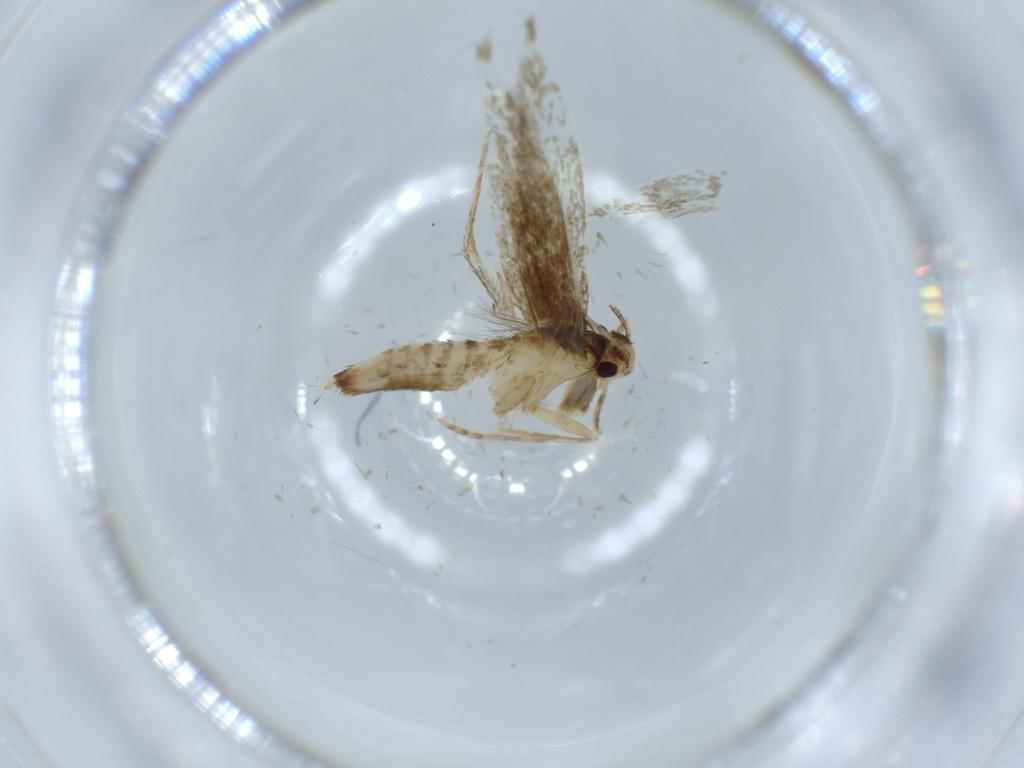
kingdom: Animalia
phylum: Arthropoda
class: Insecta
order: Lepidoptera
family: Tineidae
